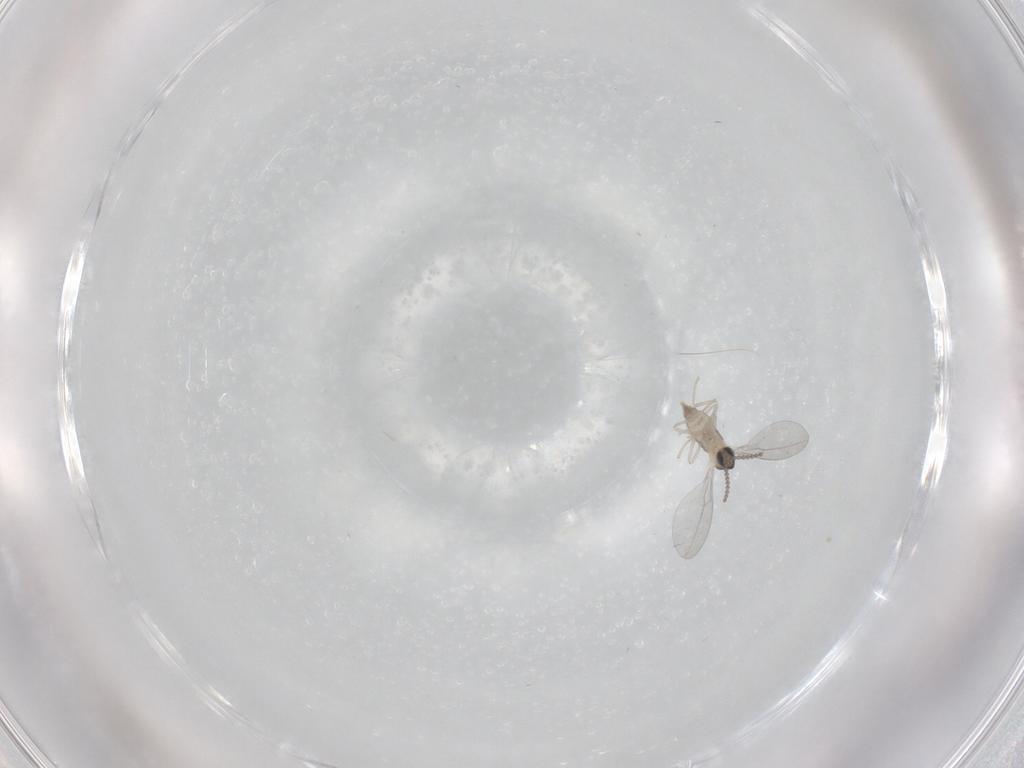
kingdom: Animalia
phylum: Arthropoda
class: Insecta
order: Diptera
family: Cecidomyiidae
